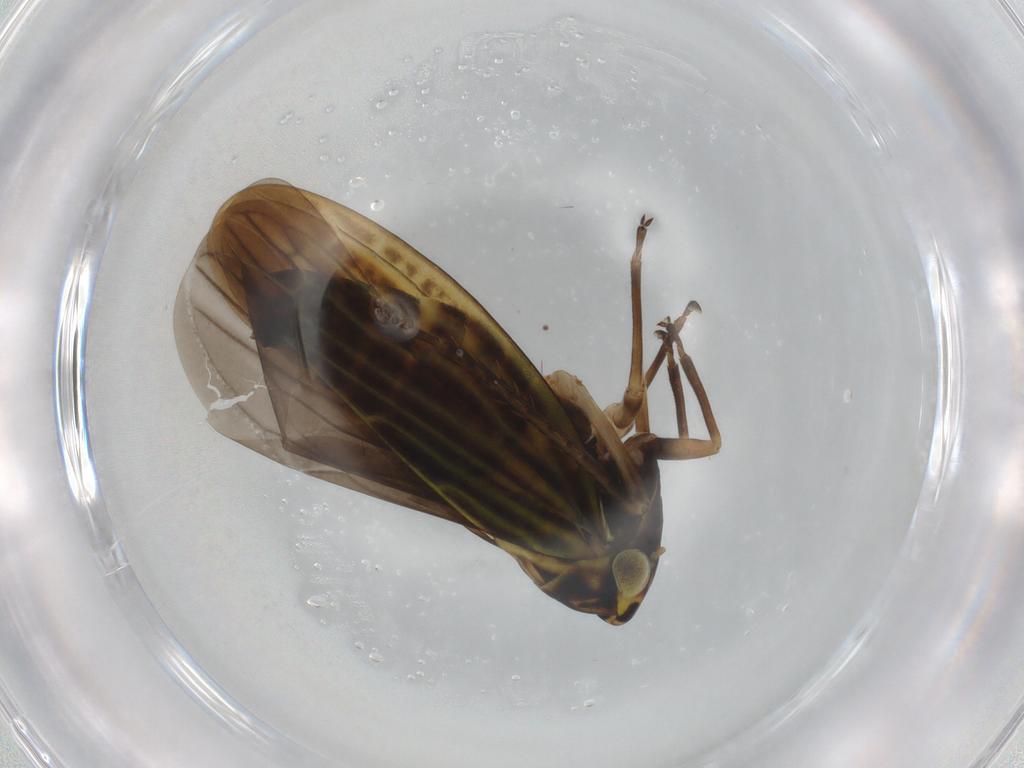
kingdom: Animalia
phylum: Arthropoda
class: Insecta
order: Hemiptera
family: Cicadellidae
